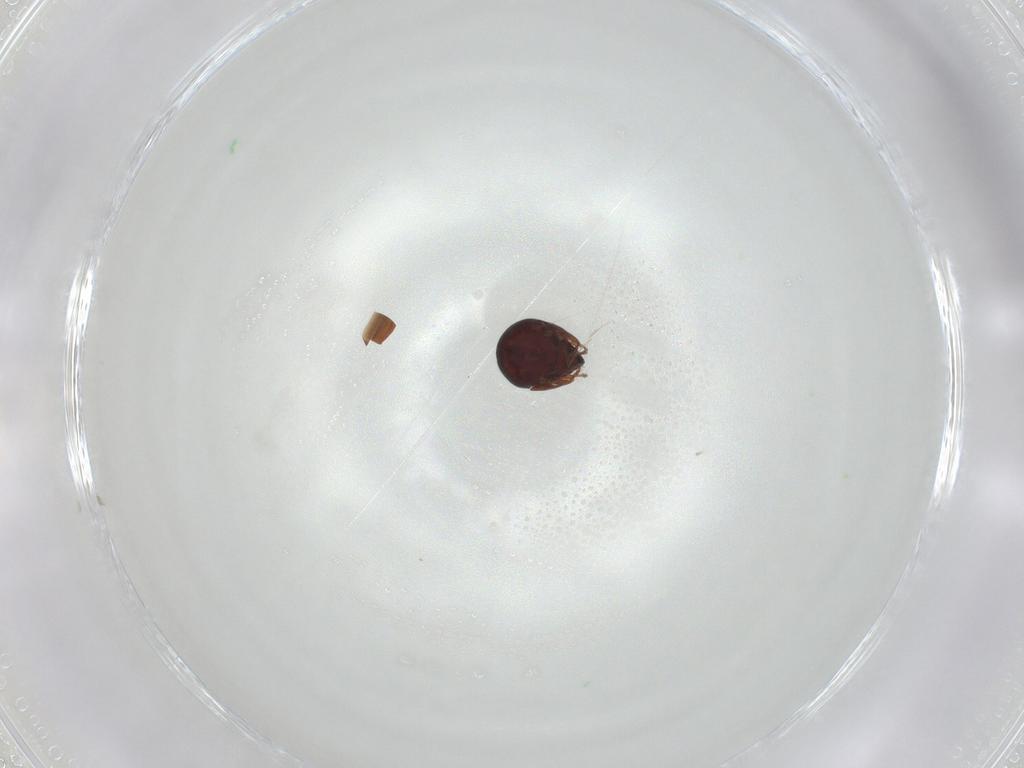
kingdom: Animalia
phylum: Arthropoda
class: Arachnida
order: Sarcoptiformes
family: Galumnidae
